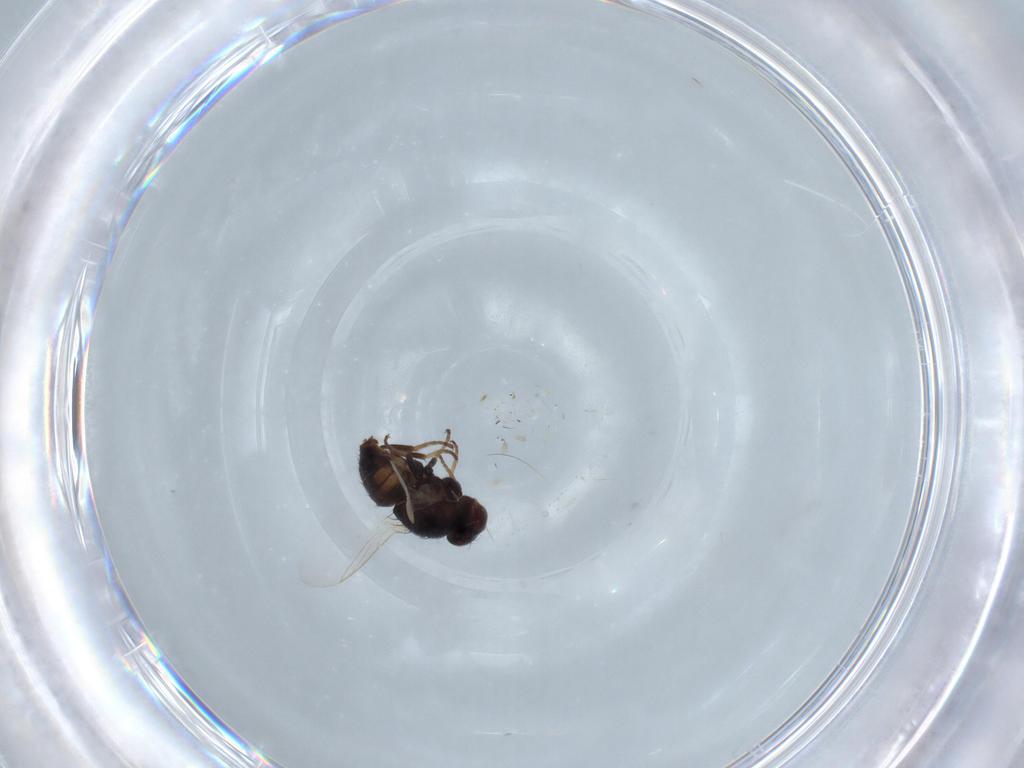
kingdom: Animalia
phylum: Arthropoda
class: Insecta
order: Diptera
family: Agromyzidae
